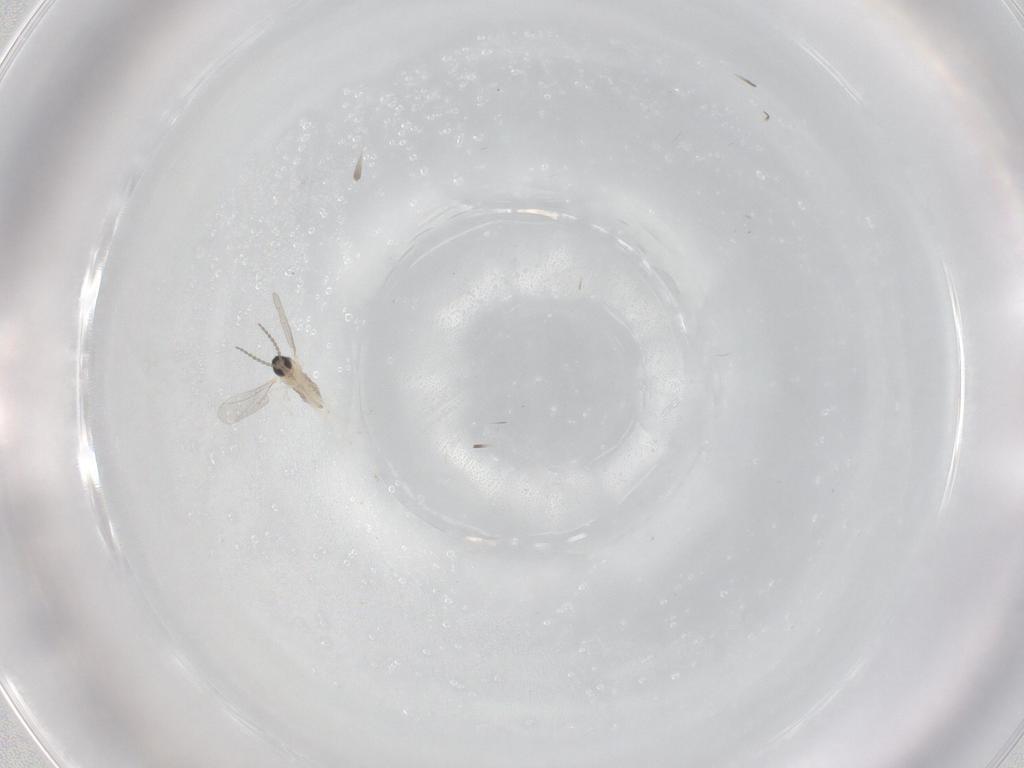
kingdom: Animalia
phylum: Arthropoda
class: Insecta
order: Diptera
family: Cecidomyiidae
